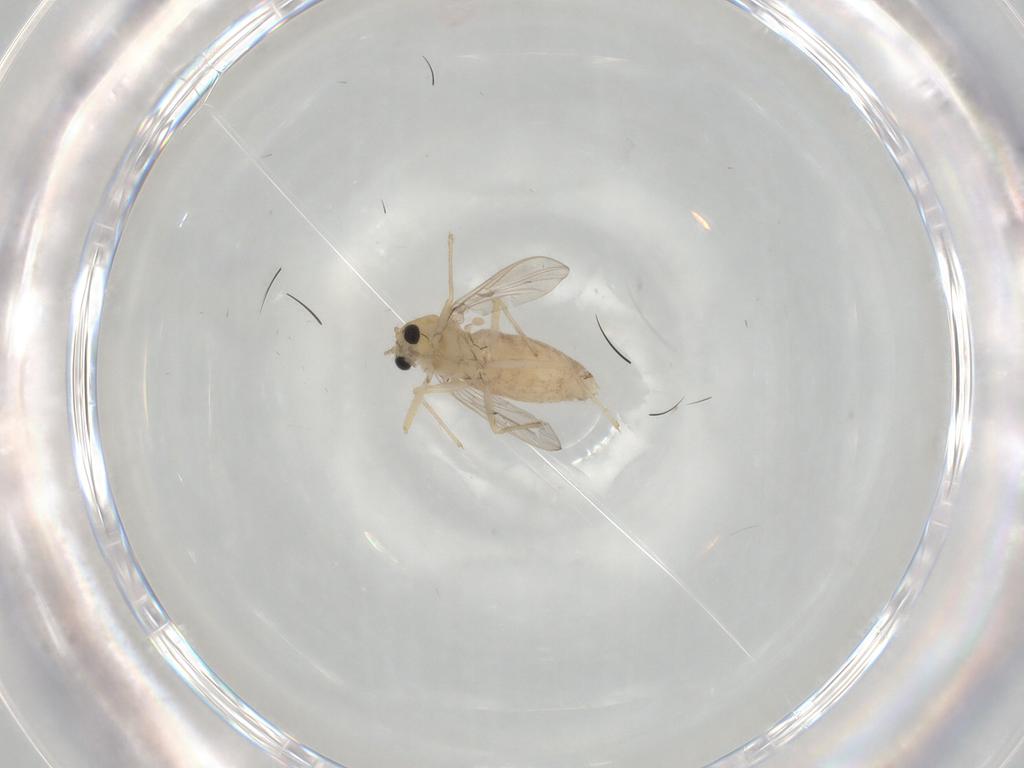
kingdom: Animalia
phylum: Arthropoda
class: Insecta
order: Diptera
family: Chironomidae
